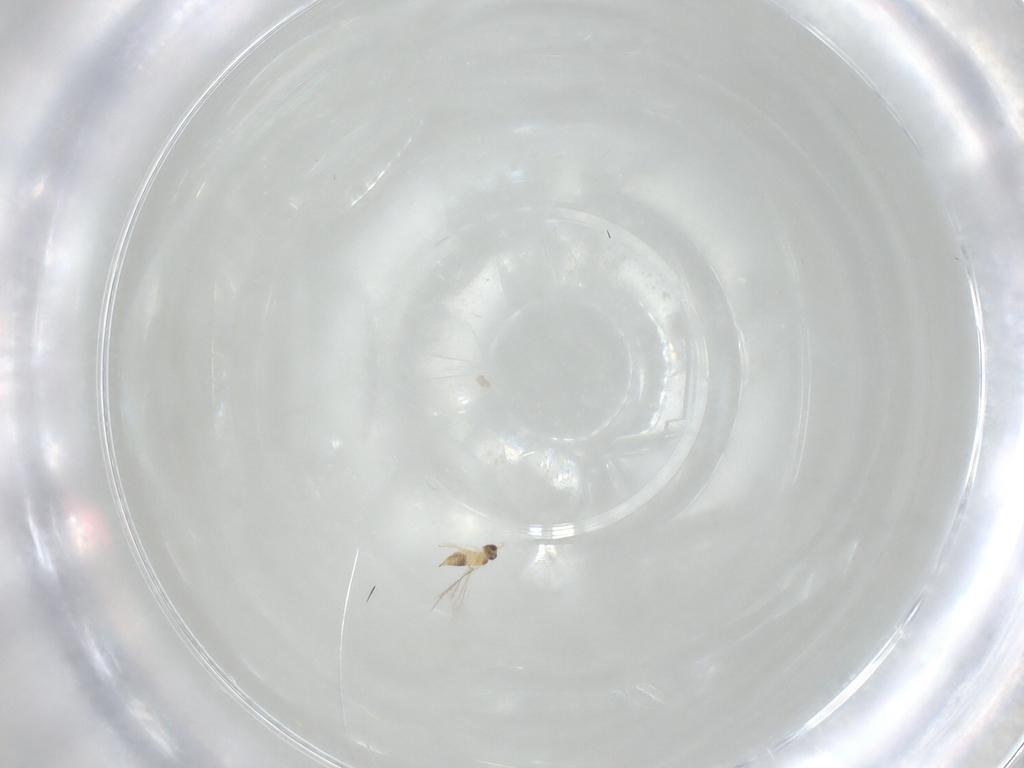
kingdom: Animalia
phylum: Arthropoda
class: Insecta
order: Hymenoptera
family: Mymaridae
